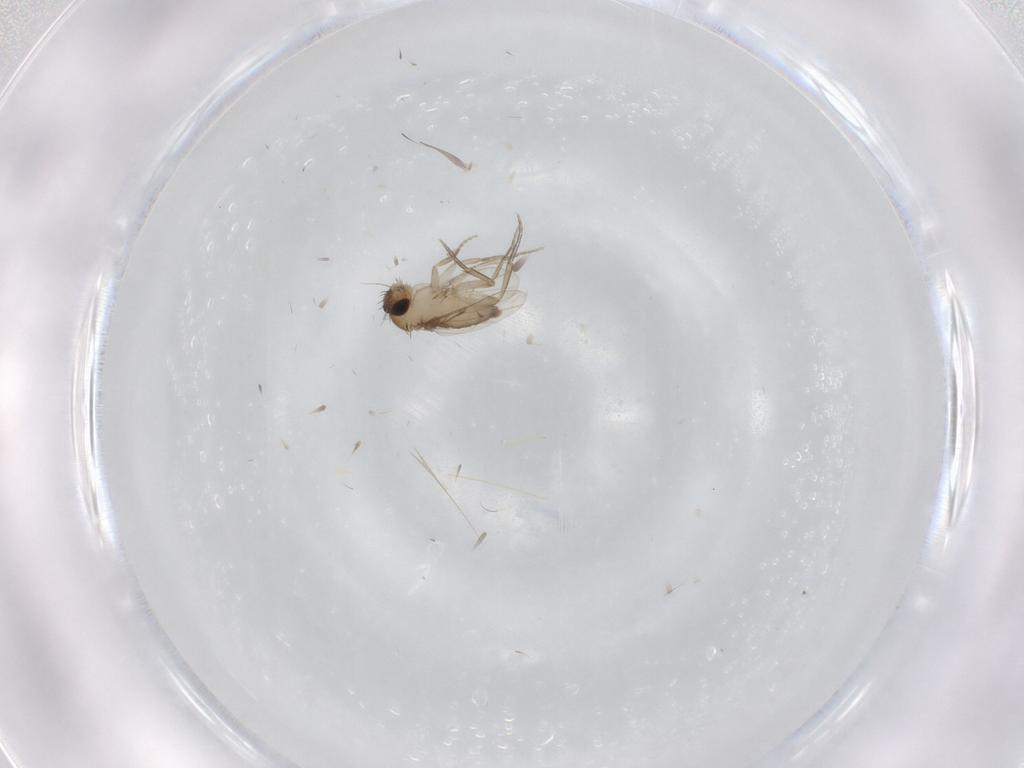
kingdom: Animalia
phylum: Arthropoda
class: Insecta
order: Diptera
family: Phoridae
